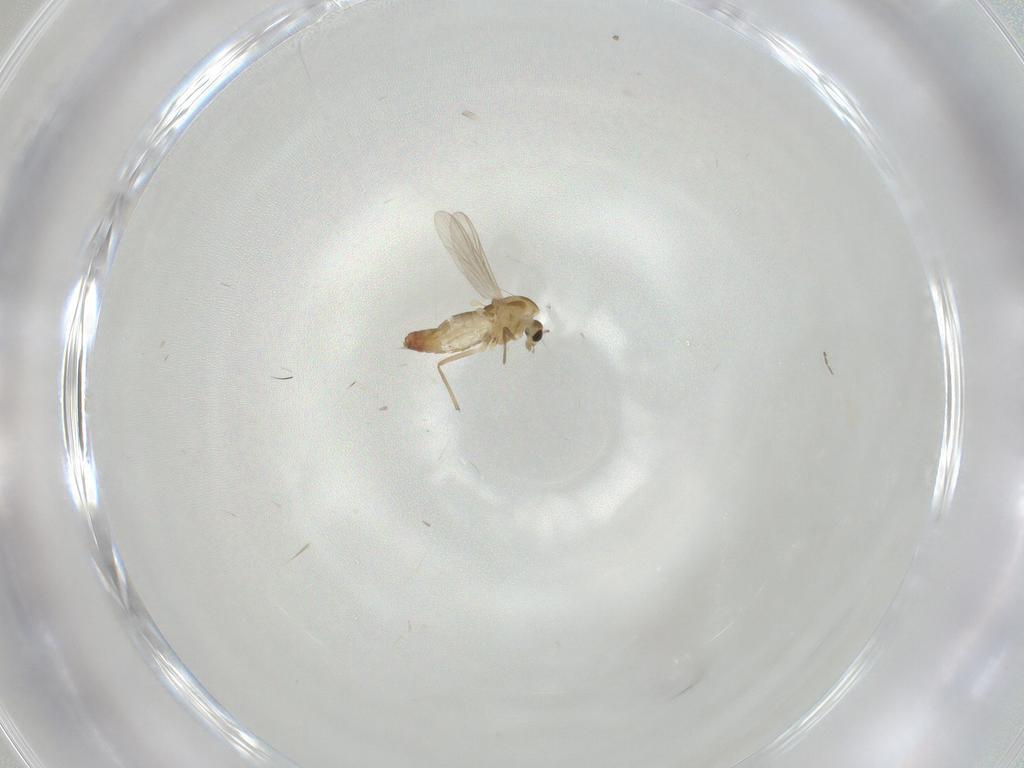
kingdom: Animalia
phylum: Arthropoda
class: Insecta
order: Diptera
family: Chironomidae
